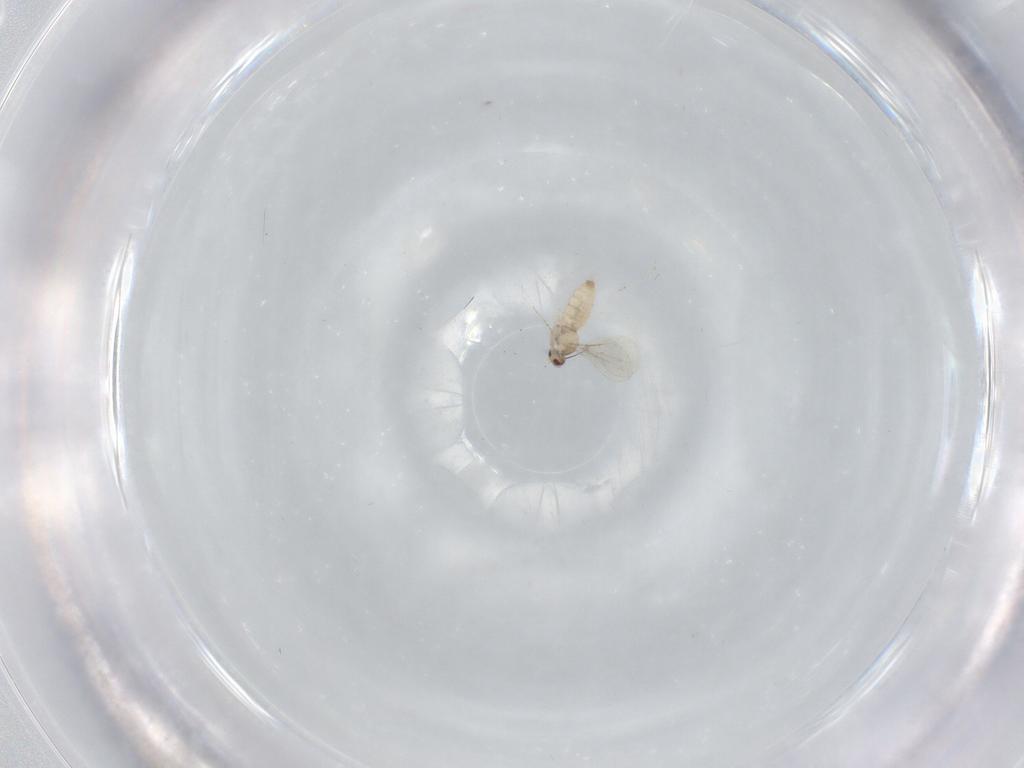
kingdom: Animalia
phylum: Arthropoda
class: Insecta
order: Diptera
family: Cecidomyiidae
